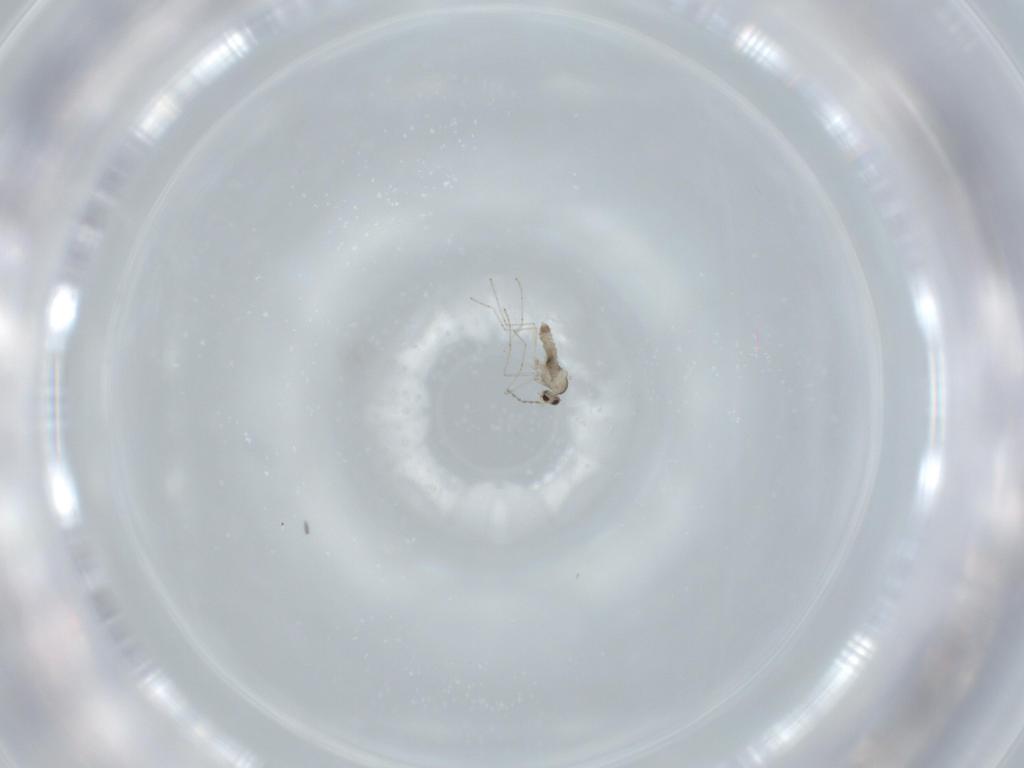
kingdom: Animalia
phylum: Arthropoda
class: Insecta
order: Diptera
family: Cecidomyiidae
